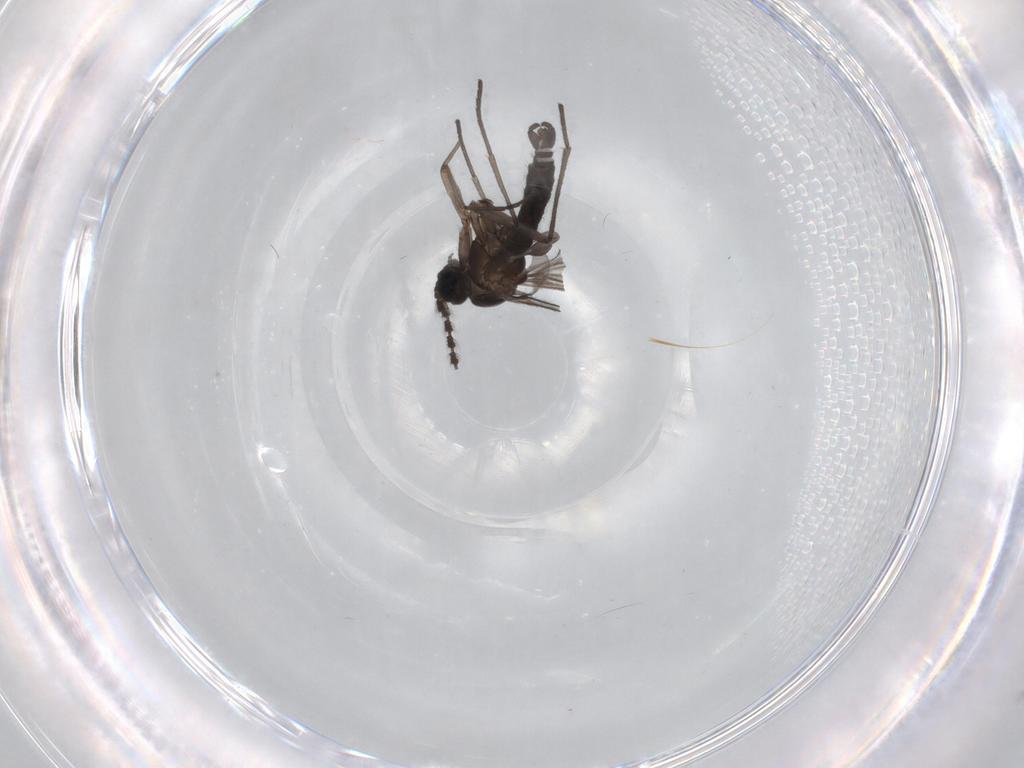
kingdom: Animalia
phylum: Arthropoda
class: Insecta
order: Diptera
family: Sciaridae
